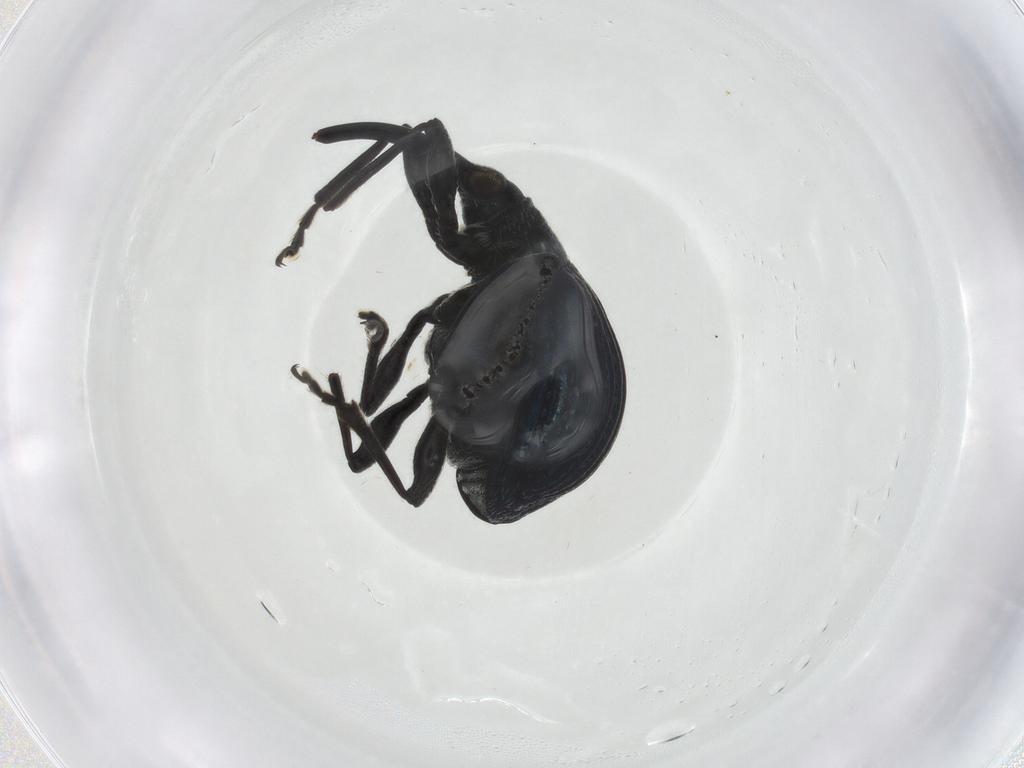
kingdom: Animalia
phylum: Arthropoda
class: Insecta
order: Coleoptera
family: Brentidae
